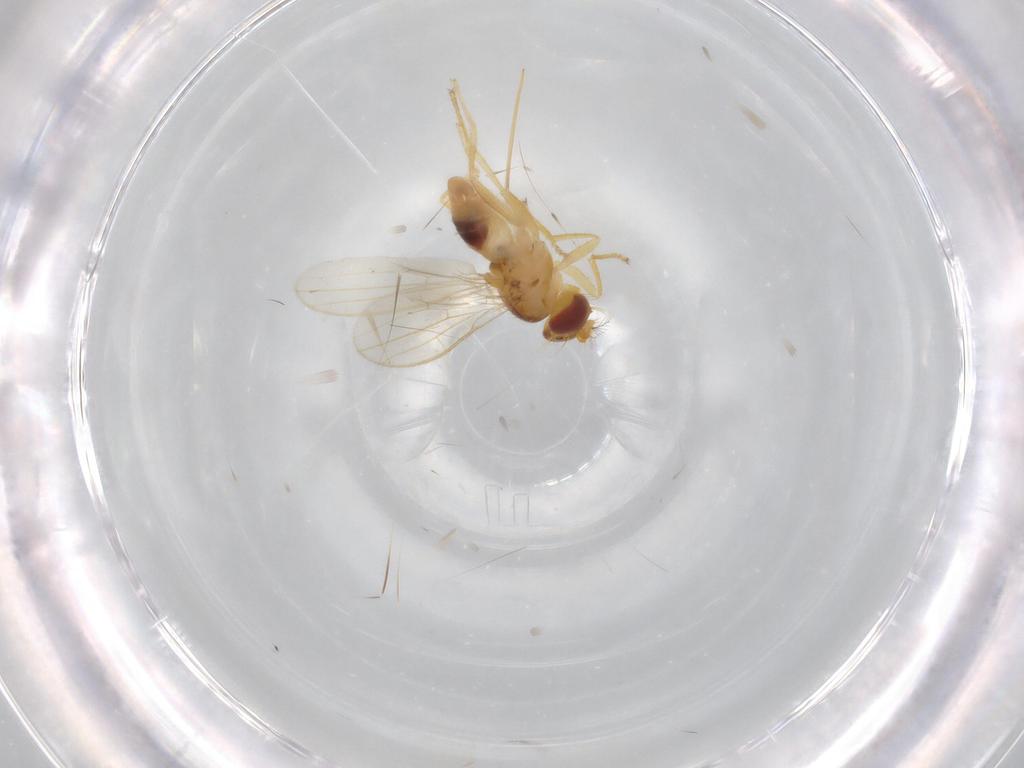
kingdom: Animalia
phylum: Arthropoda
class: Insecta
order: Diptera
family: Periscelididae
